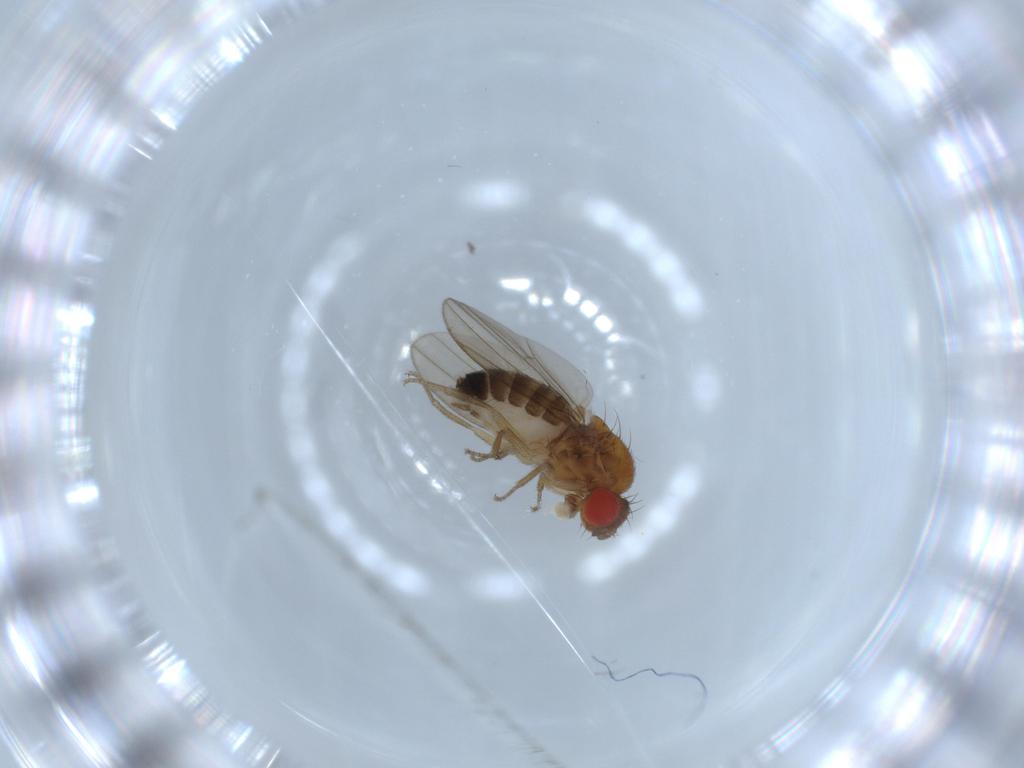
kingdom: Animalia
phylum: Arthropoda
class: Insecta
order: Diptera
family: Drosophilidae
